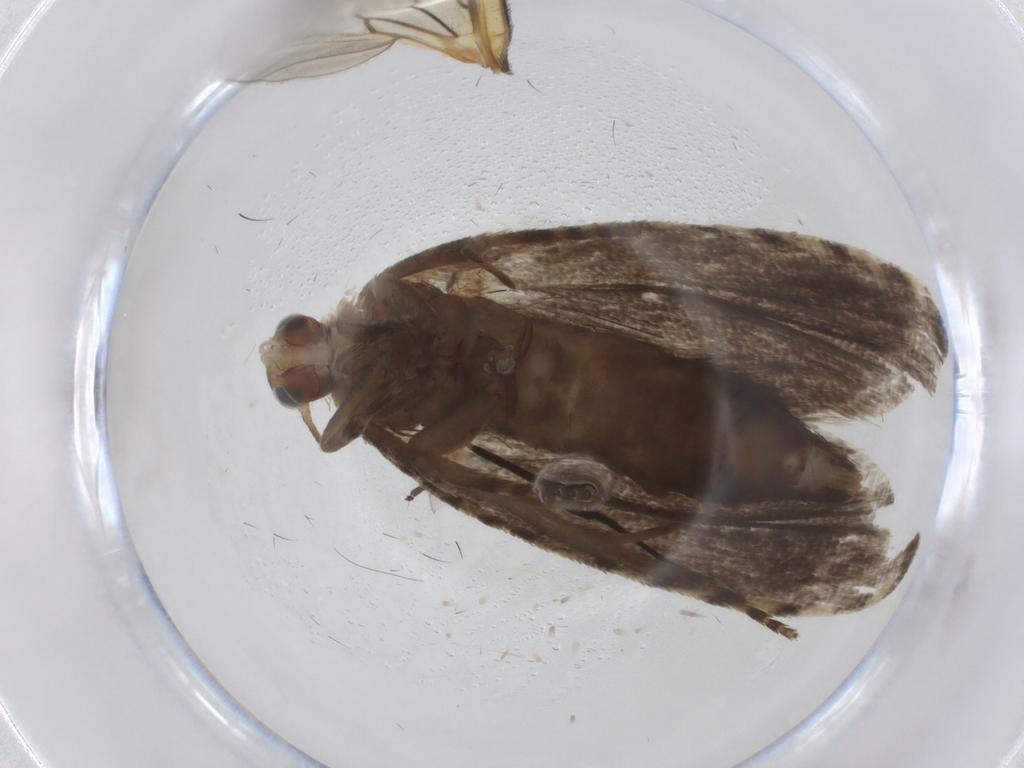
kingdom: Animalia
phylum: Arthropoda
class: Insecta
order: Lepidoptera
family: Tortricidae
